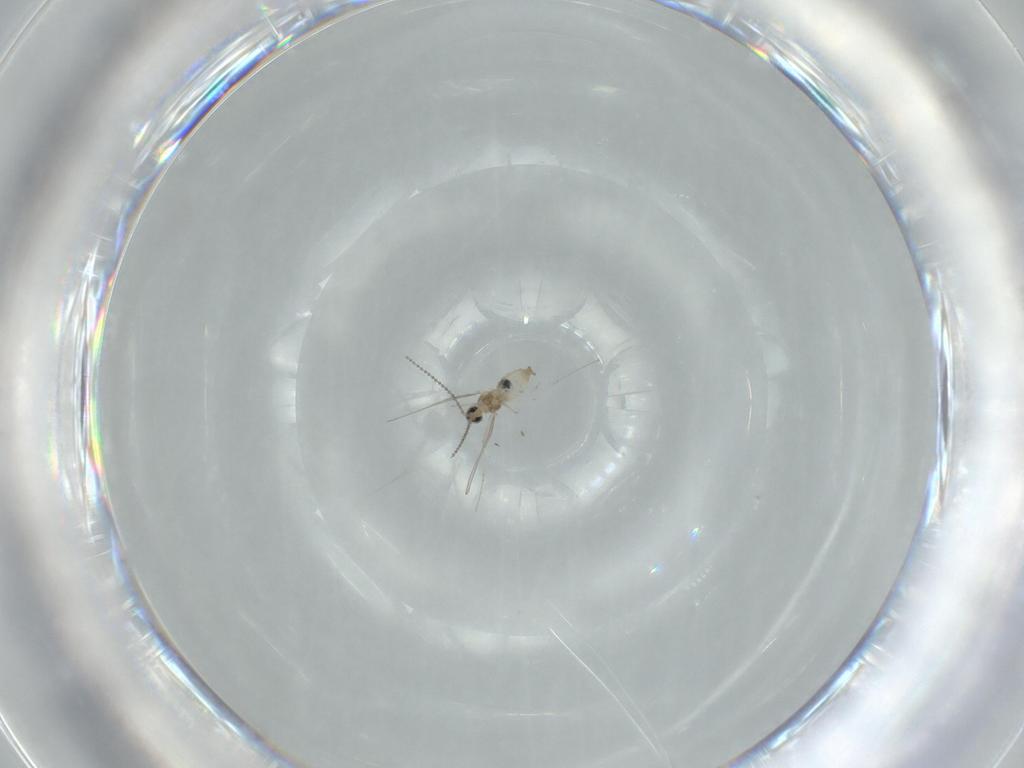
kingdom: Animalia
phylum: Arthropoda
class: Insecta
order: Diptera
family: Cecidomyiidae
